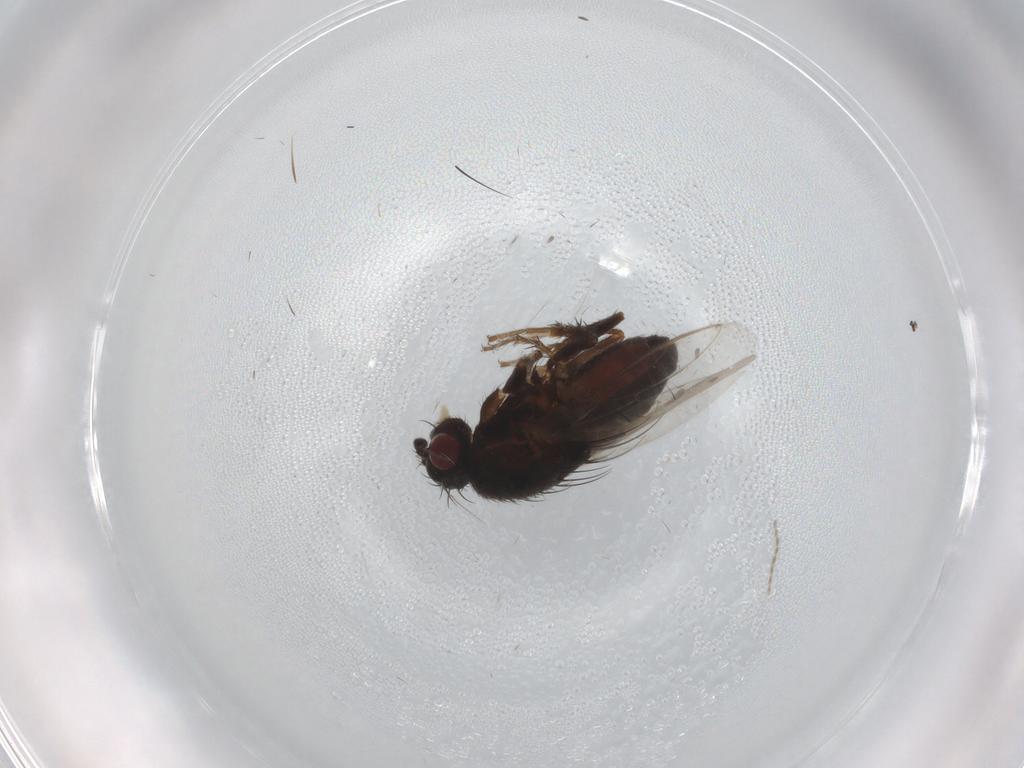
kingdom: Animalia
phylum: Arthropoda
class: Insecta
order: Diptera
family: Sphaeroceridae
